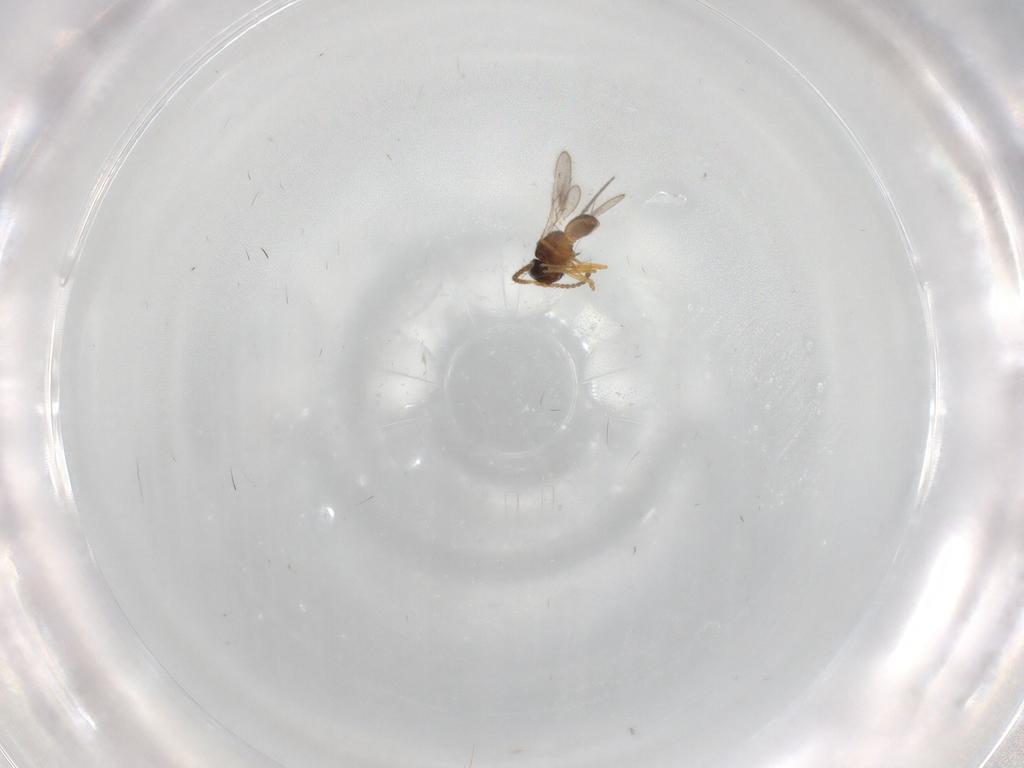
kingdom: Animalia
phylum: Arthropoda
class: Insecta
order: Hymenoptera
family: Scelionidae
